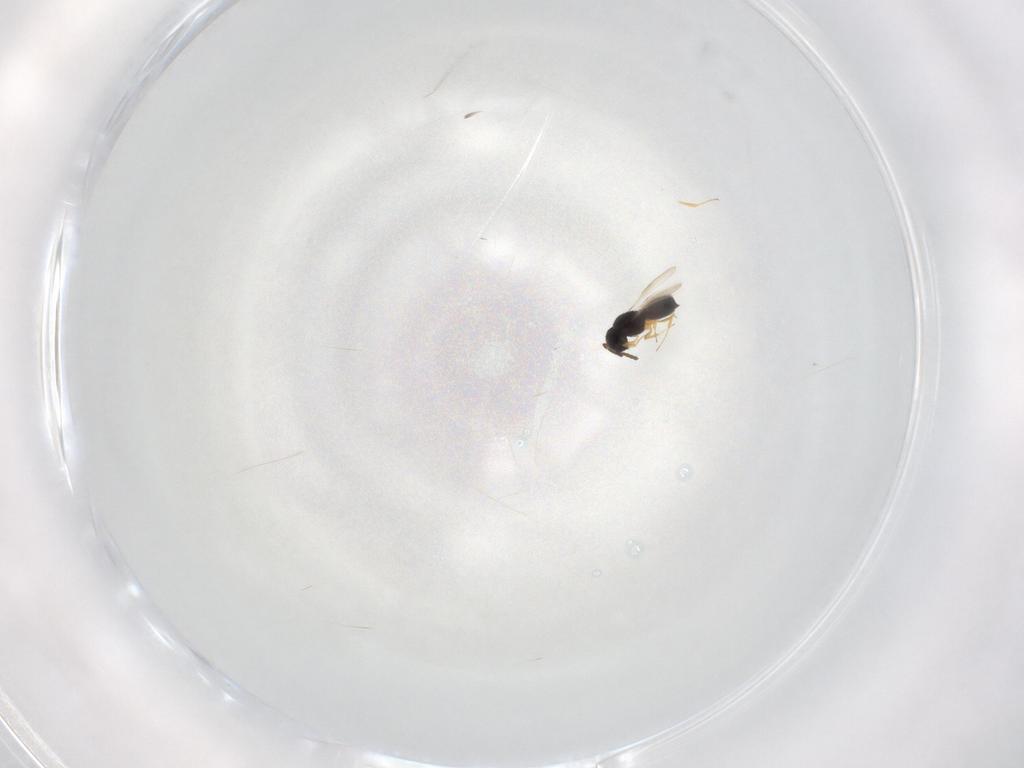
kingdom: Animalia
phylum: Arthropoda
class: Insecta
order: Hymenoptera
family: Scelionidae
